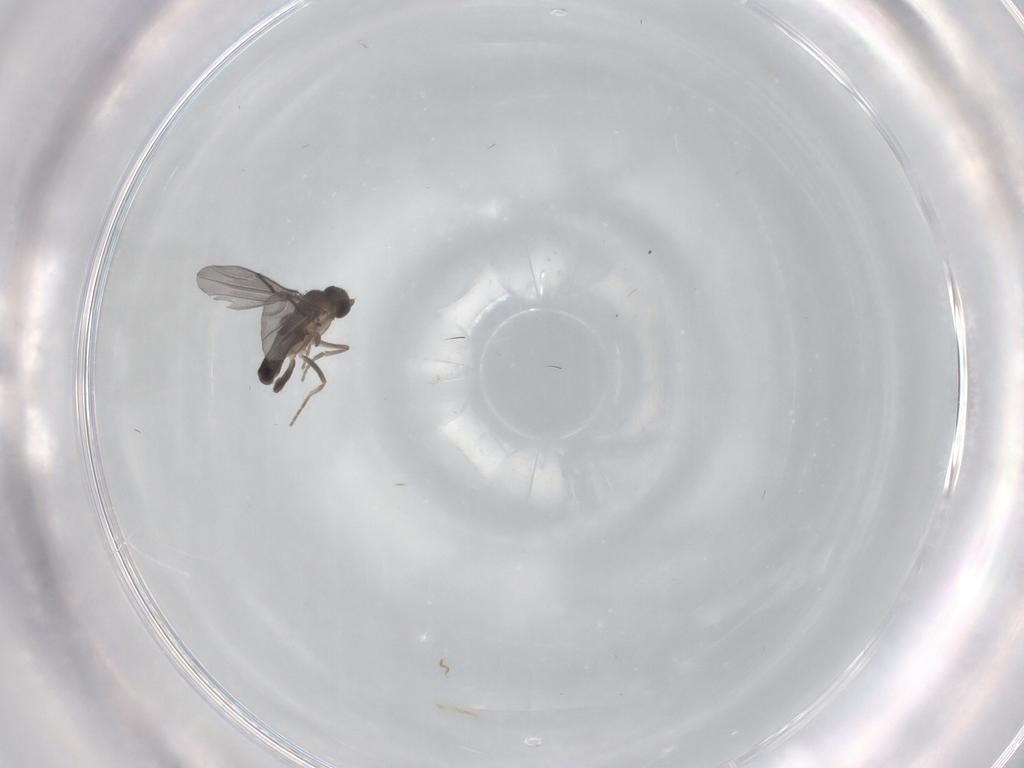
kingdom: Animalia
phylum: Arthropoda
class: Insecta
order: Diptera
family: Phoridae
